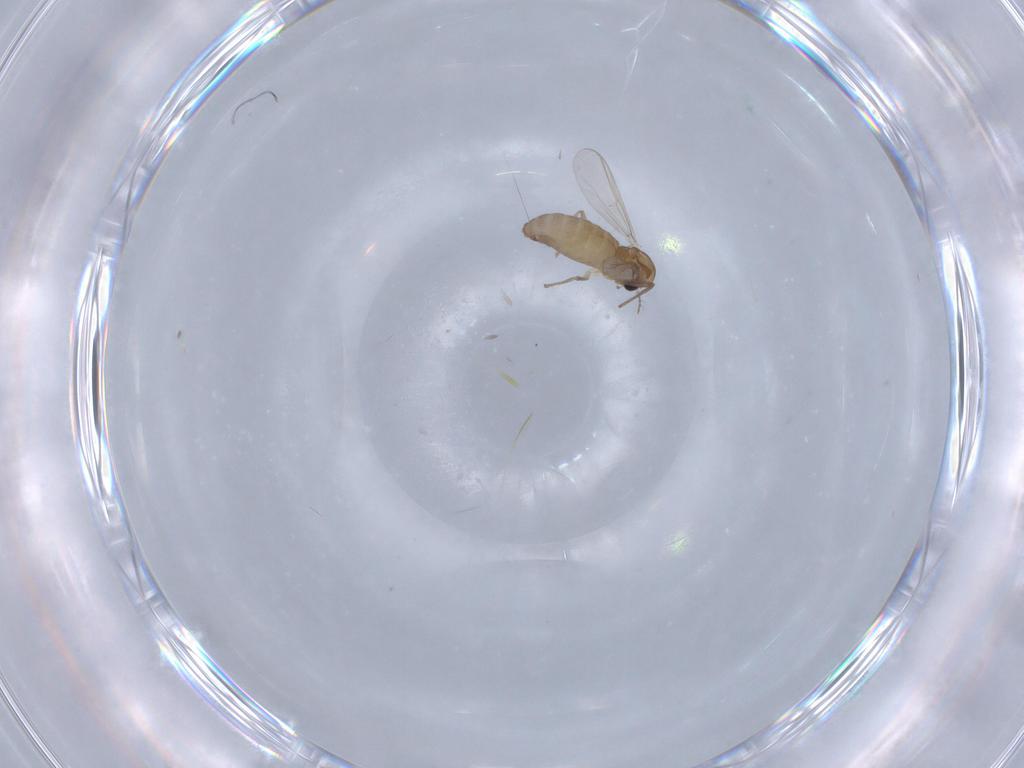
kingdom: Animalia
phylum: Arthropoda
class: Insecta
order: Diptera
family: Chironomidae
